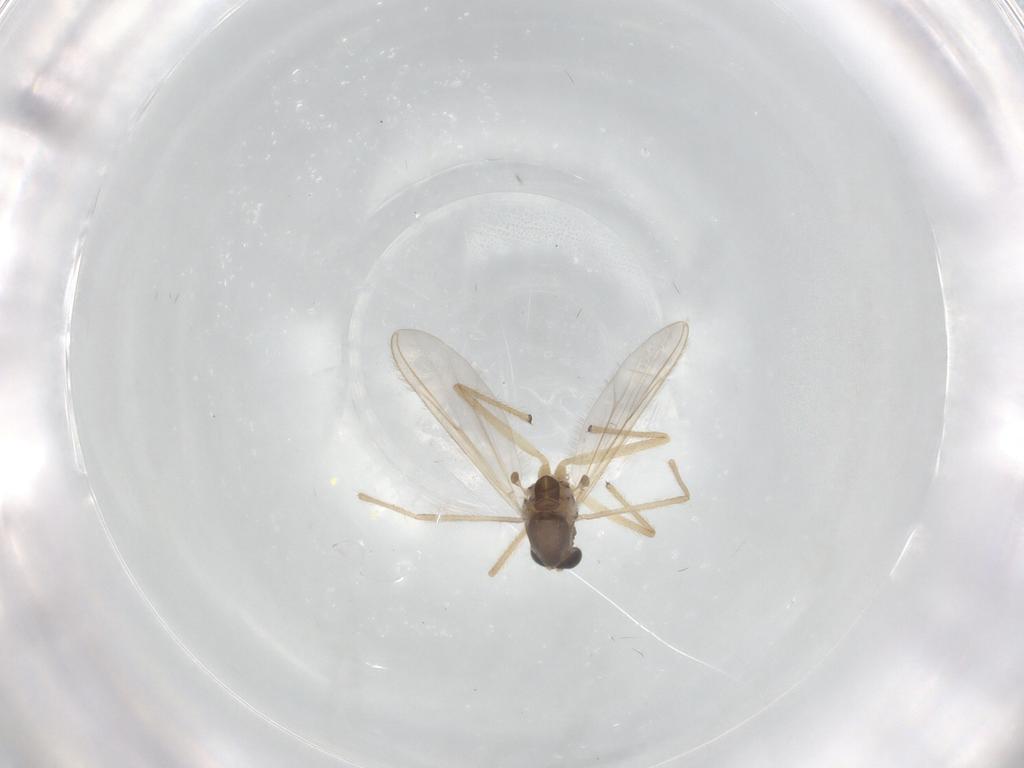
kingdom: Animalia
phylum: Arthropoda
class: Insecta
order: Diptera
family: Chironomidae
